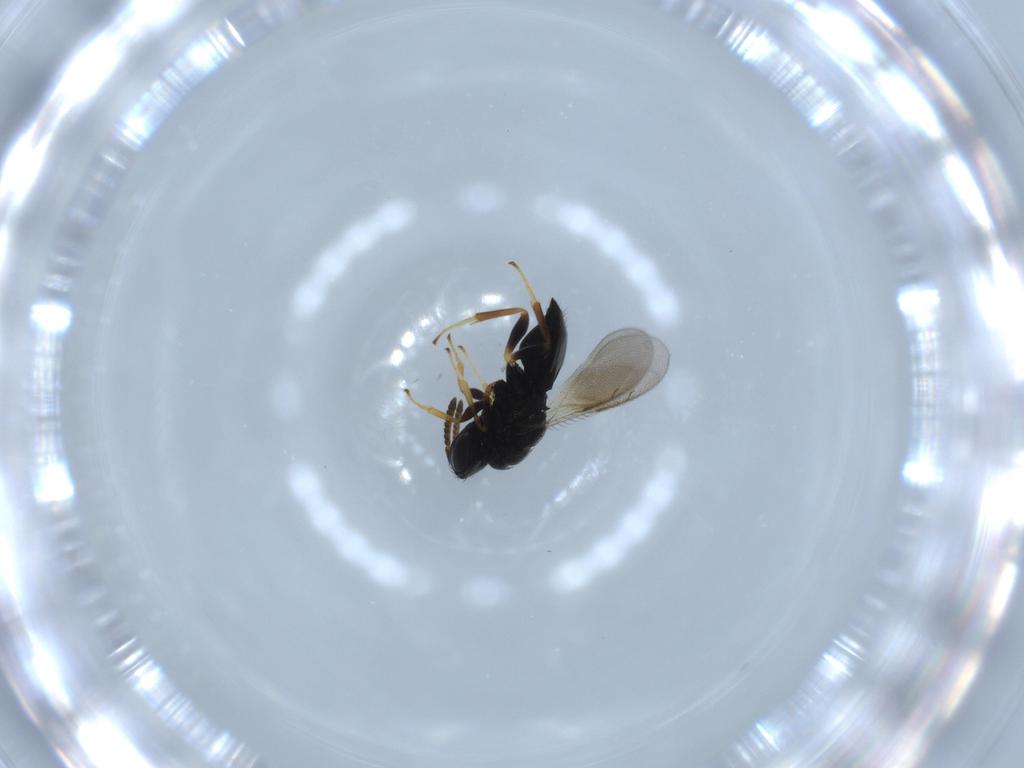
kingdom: Animalia
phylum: Arthropoda
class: Insecta
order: Hymenoptera
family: Pteromalidae
